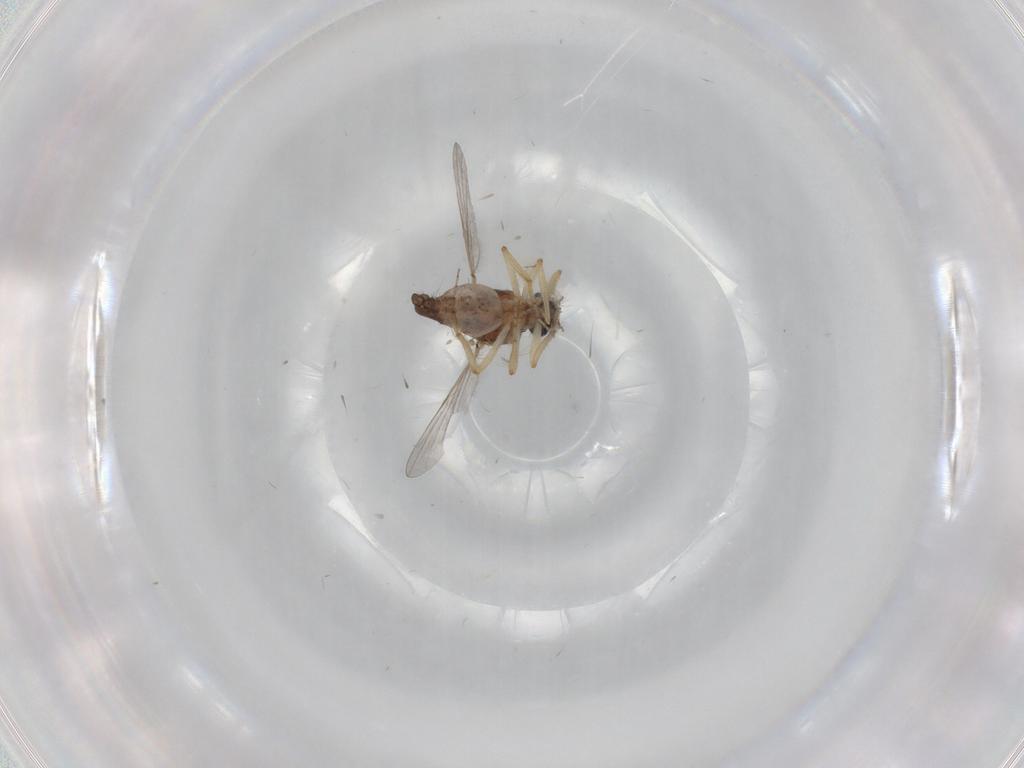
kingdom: Animalia
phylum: Arthropoda
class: Insecta
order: Diptera
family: Ceratopogonidae
